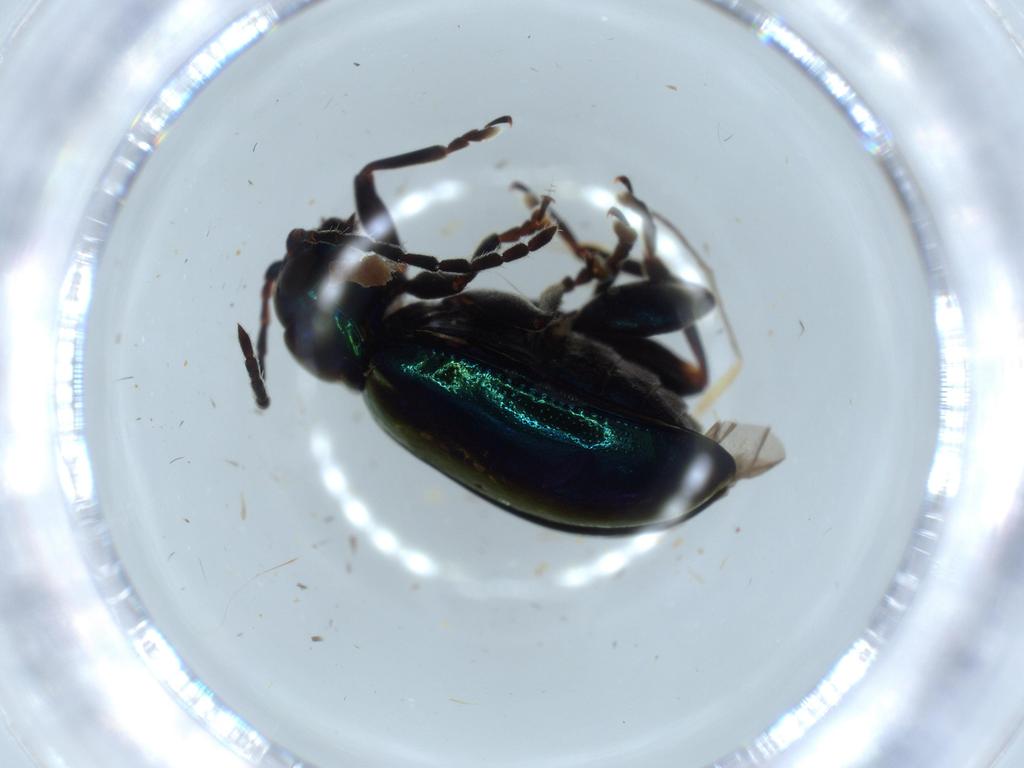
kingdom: Animalia
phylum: Arthropoda
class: Insecta
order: Coleoptera
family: Chrysomelidae
